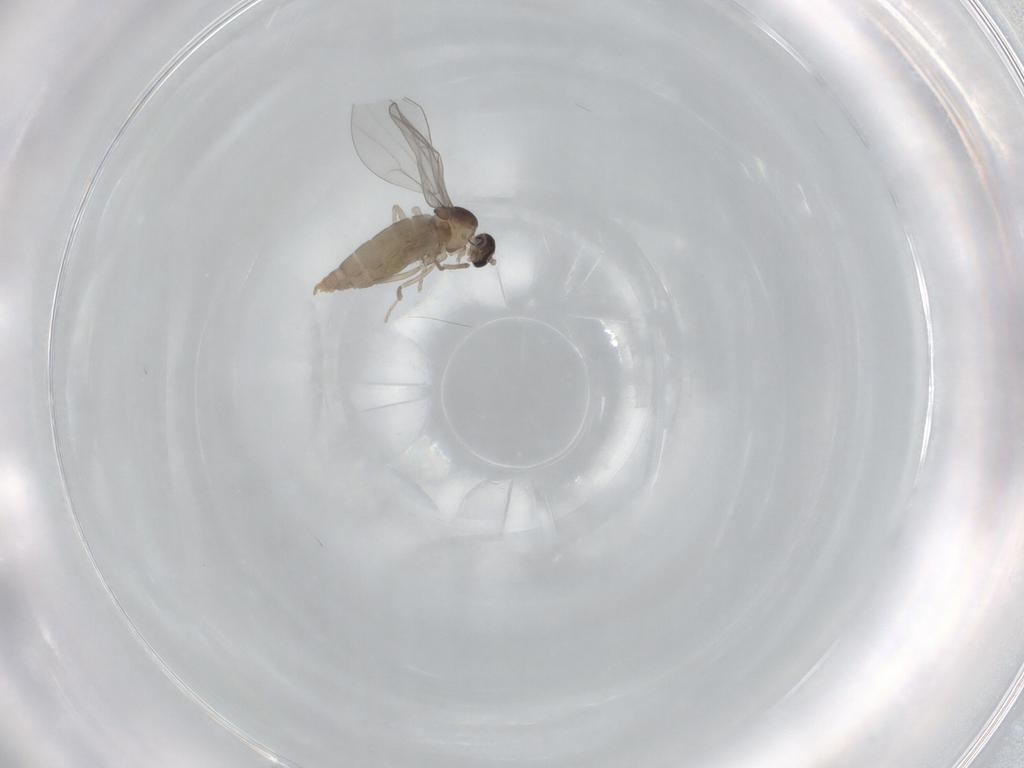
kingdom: Animalia
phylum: Arthropoda
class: Insecta
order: Diptera
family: Cecidomyiidae
